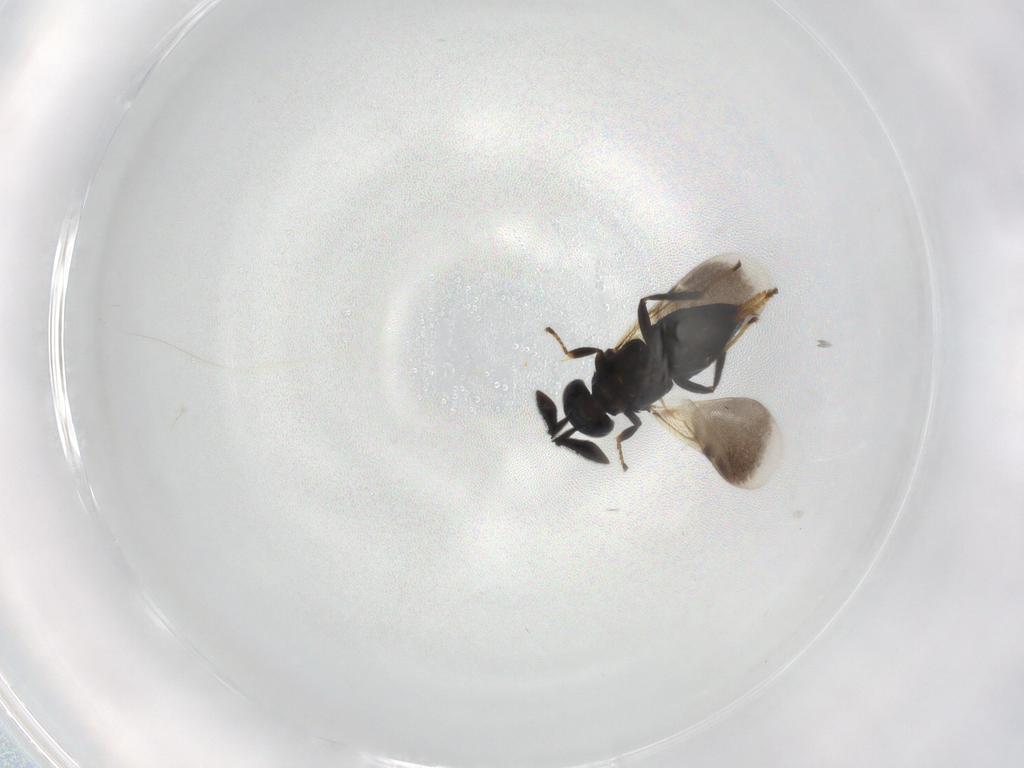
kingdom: Animalia
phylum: Arthropoda
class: Insecta
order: Hymenoptera
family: Encyrtidae
